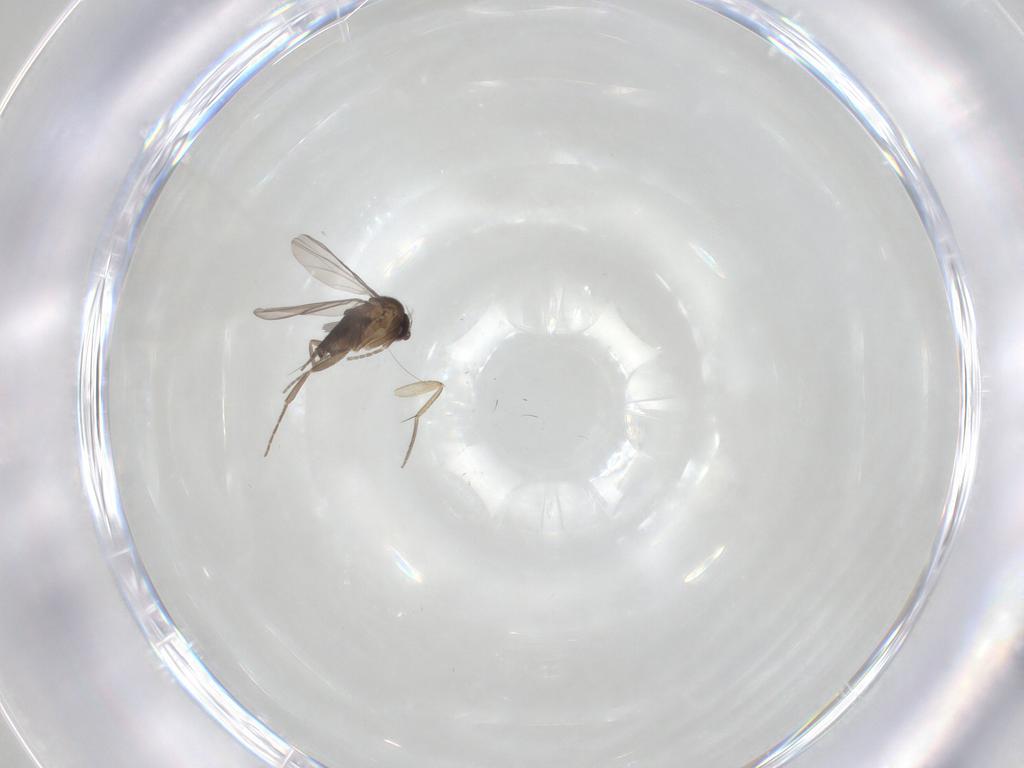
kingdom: Animalia
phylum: Arthropoda
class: Insecta
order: Diptera
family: Phoridae
